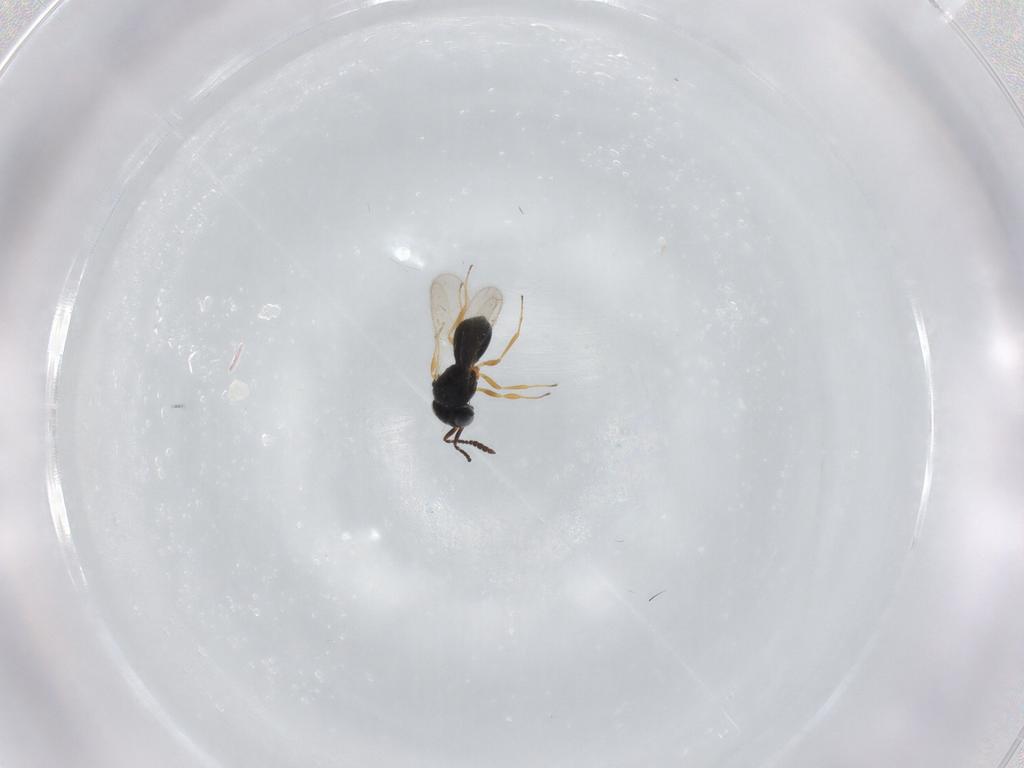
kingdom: Animalia
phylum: Arthropoda
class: Insecta
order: Hymenoptera
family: Scelionidae
